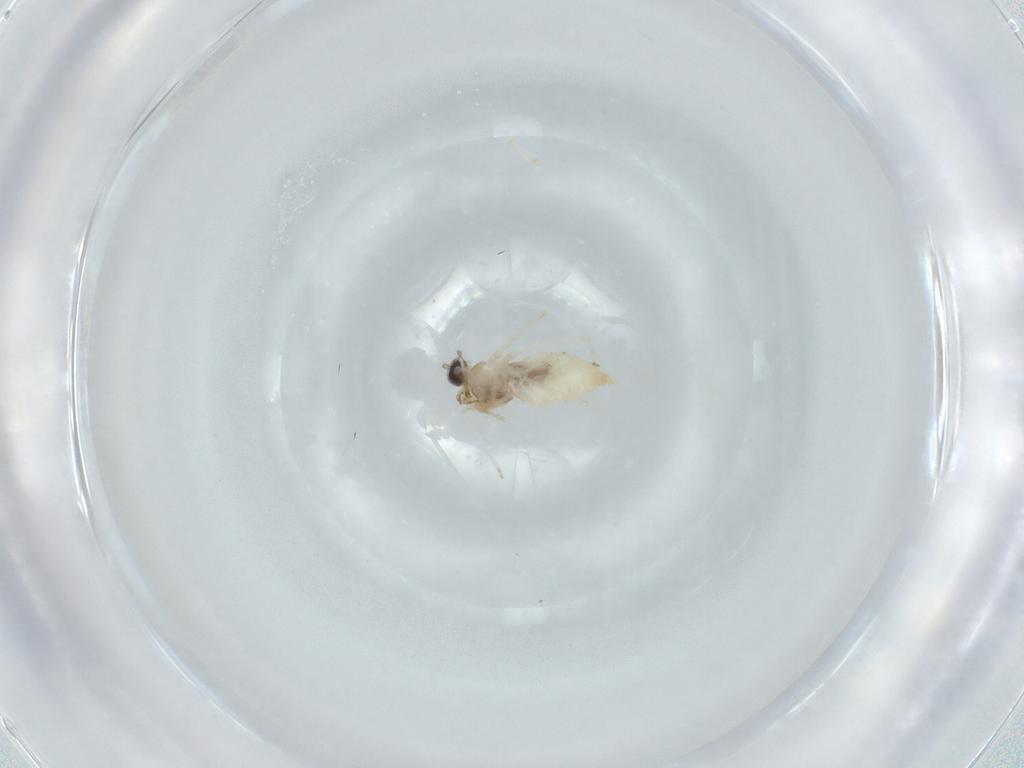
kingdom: Animalia
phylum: Arthropoda
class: Insecta
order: Diptera
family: Cecidomyiidae
